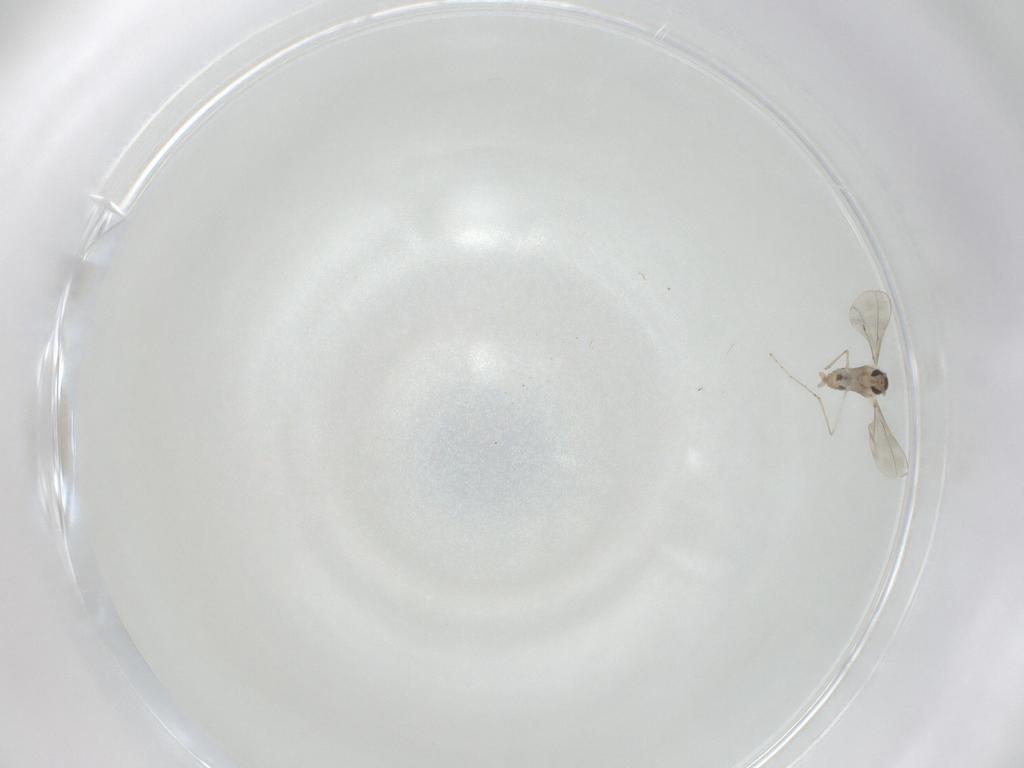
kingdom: Animalia
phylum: Arthropoda
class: Insecta
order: Diptera
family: Cecidomyiidae
